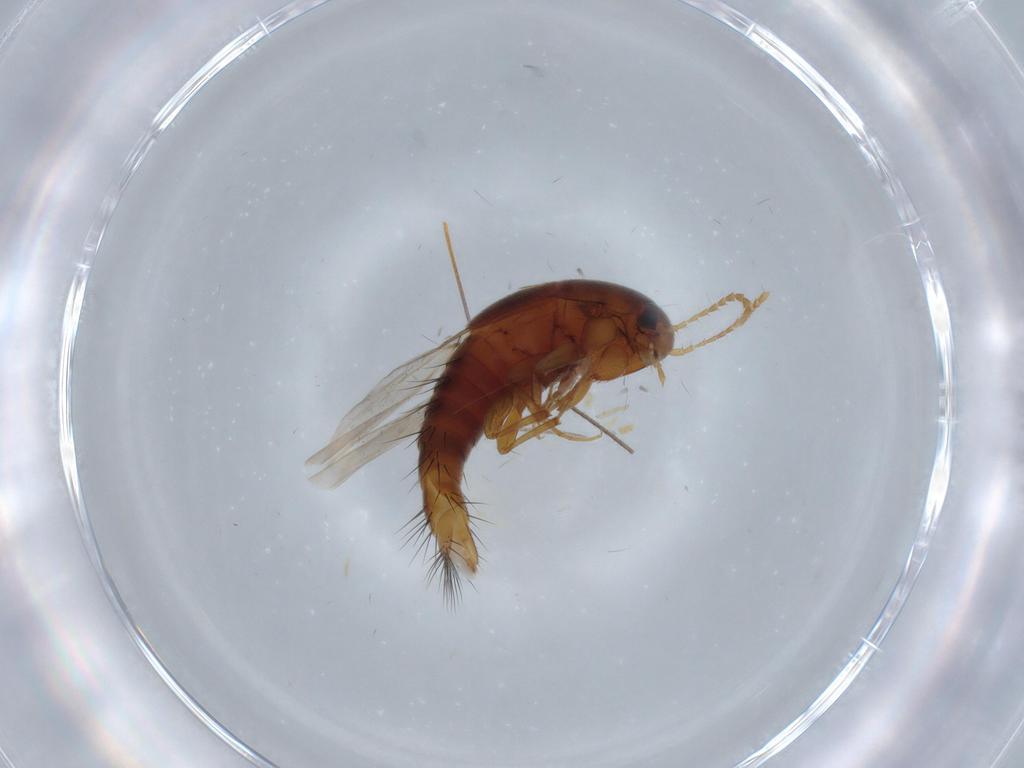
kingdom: Animalia
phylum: Arthropoda
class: Insecta
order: Coleoptera
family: Staphylinidae
